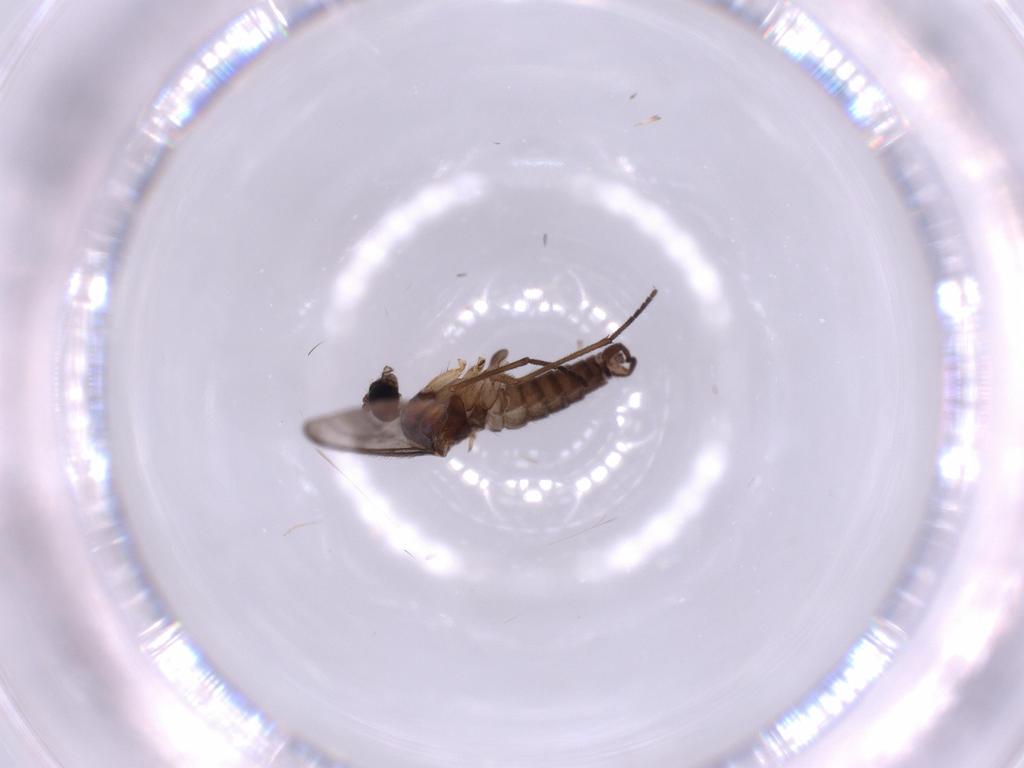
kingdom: Animalia
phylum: Arthropoda
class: Insecta
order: Diptera
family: Sciaridae
